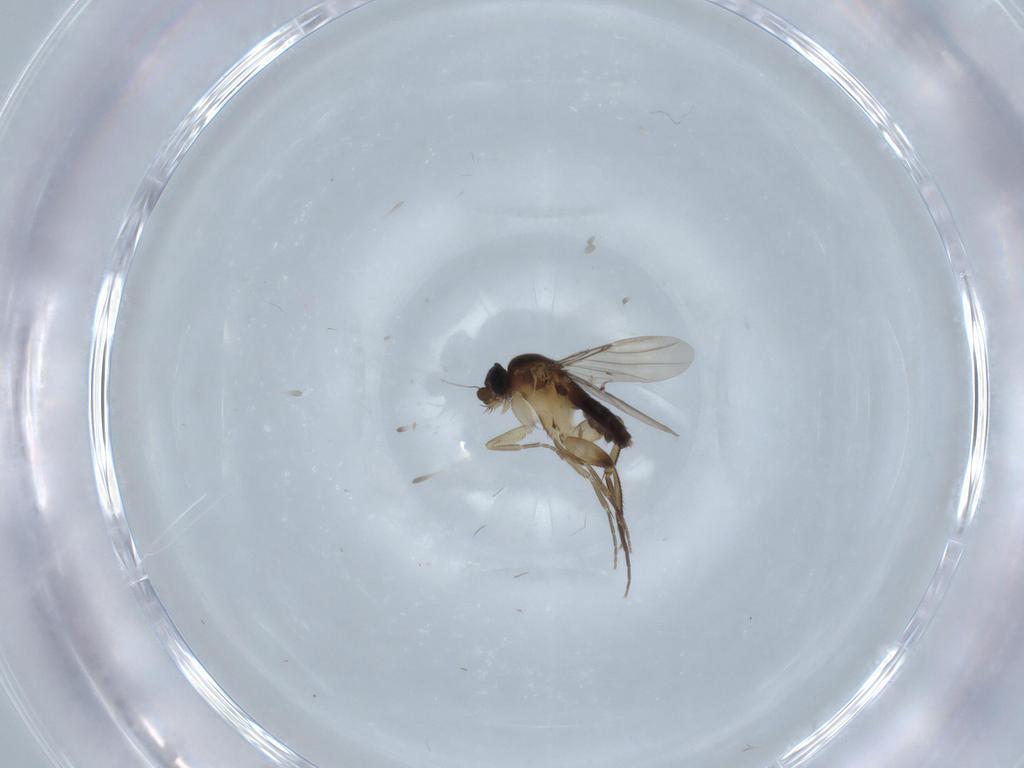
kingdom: Animalia
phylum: Arthropoda
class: Insecta
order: Diptera
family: Phoridae
